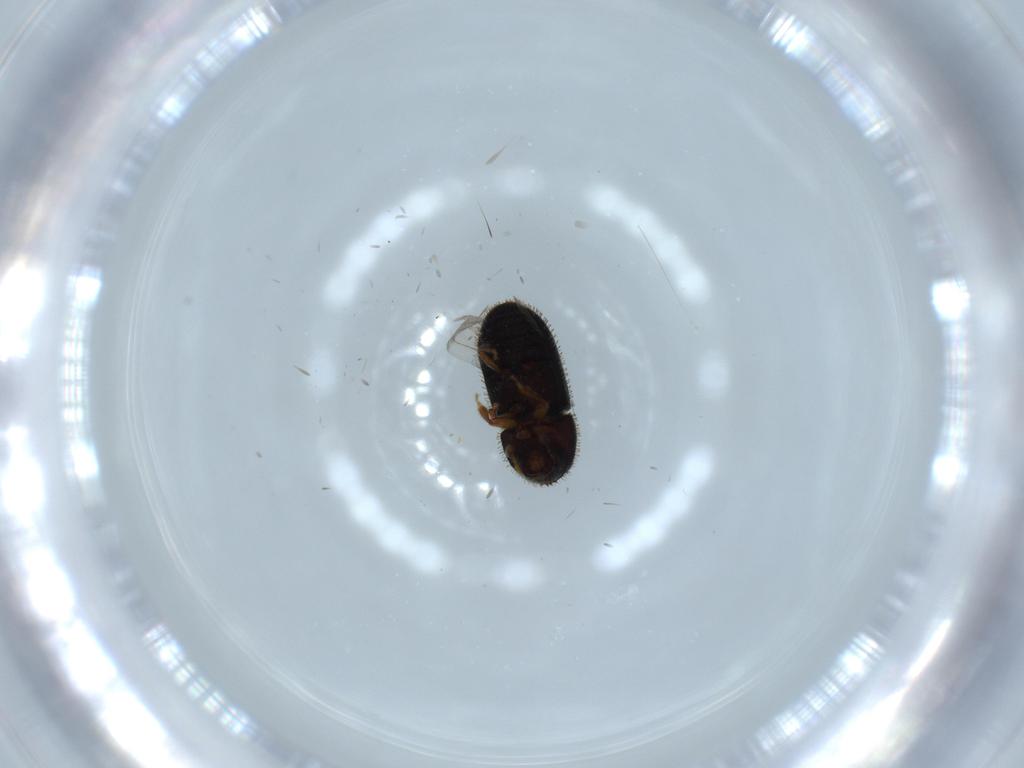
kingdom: Animalia
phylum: Arthropoda
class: Insecta
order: Coleoptera
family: Curculionidae
